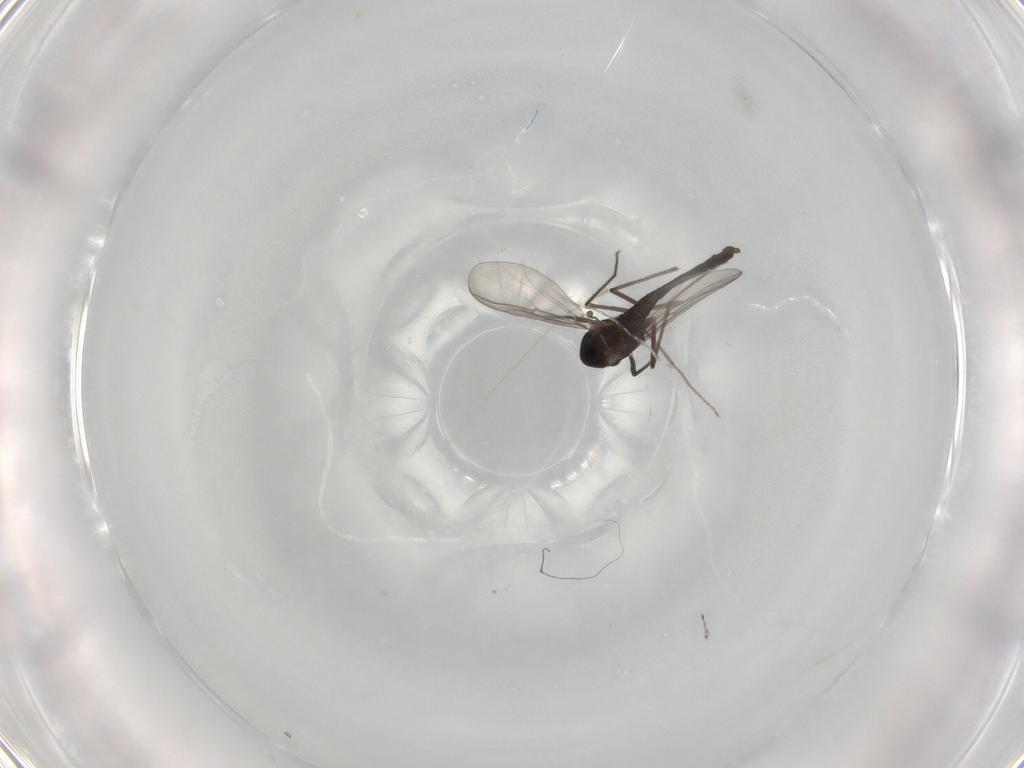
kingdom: Animalia
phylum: Arthropoda
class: Insecta
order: Diptera
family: Chironomidae
